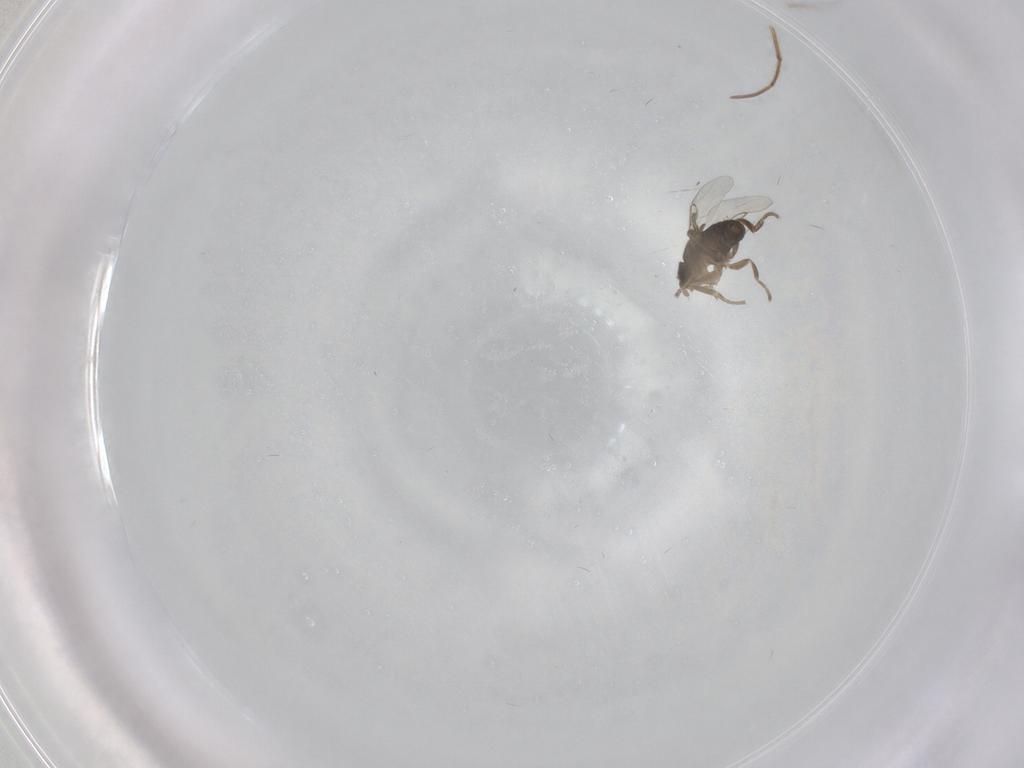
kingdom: Animalia
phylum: Arthropoda
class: Insecta
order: Diptera
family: Phoridae
